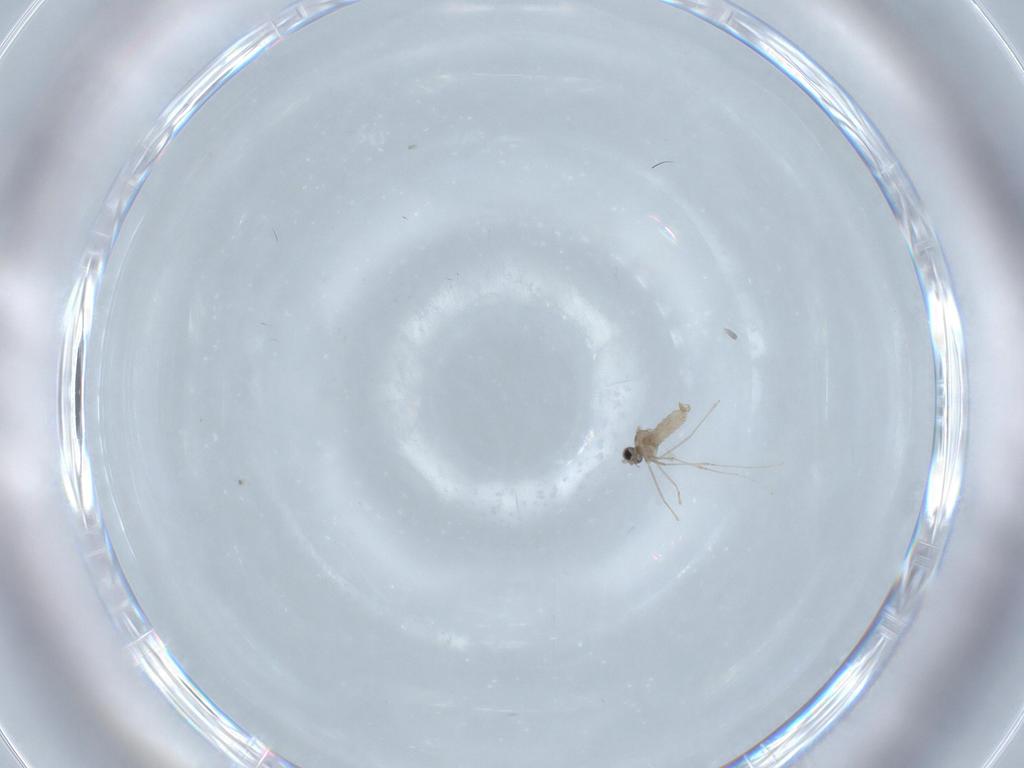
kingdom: Animalia
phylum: Arthropoda
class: Insecta
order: Diptera
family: Cecidomyiidae
